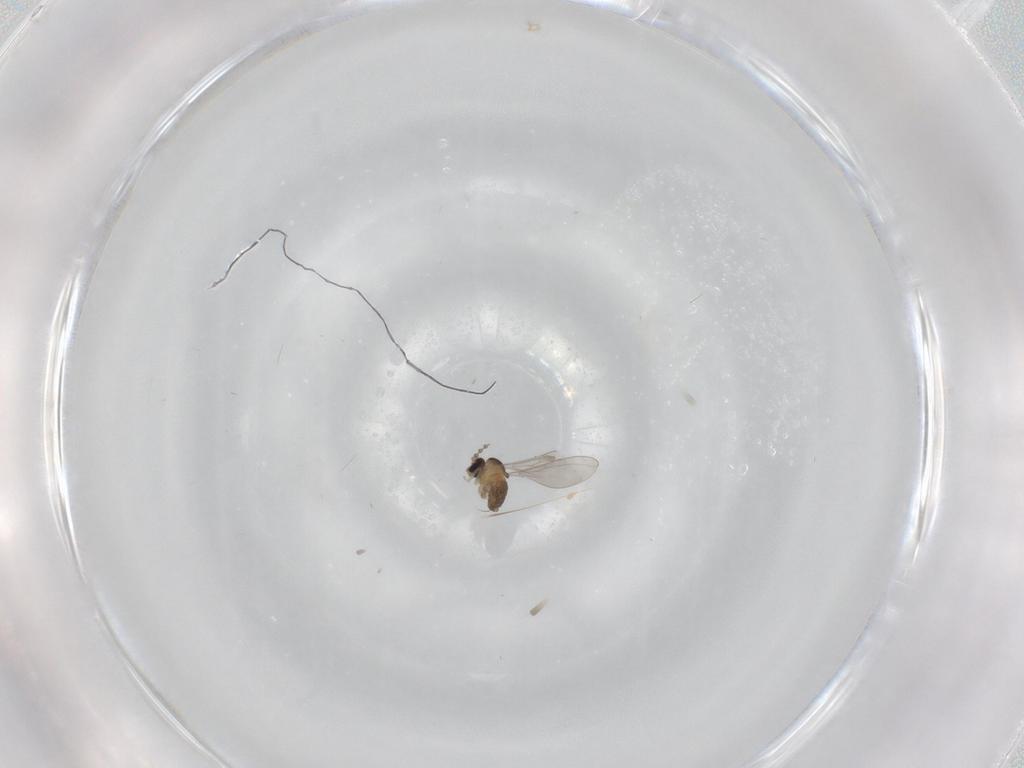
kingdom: Animalia
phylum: Arthropoda
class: Insecta
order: Diptera
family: Cecidomyiidae
